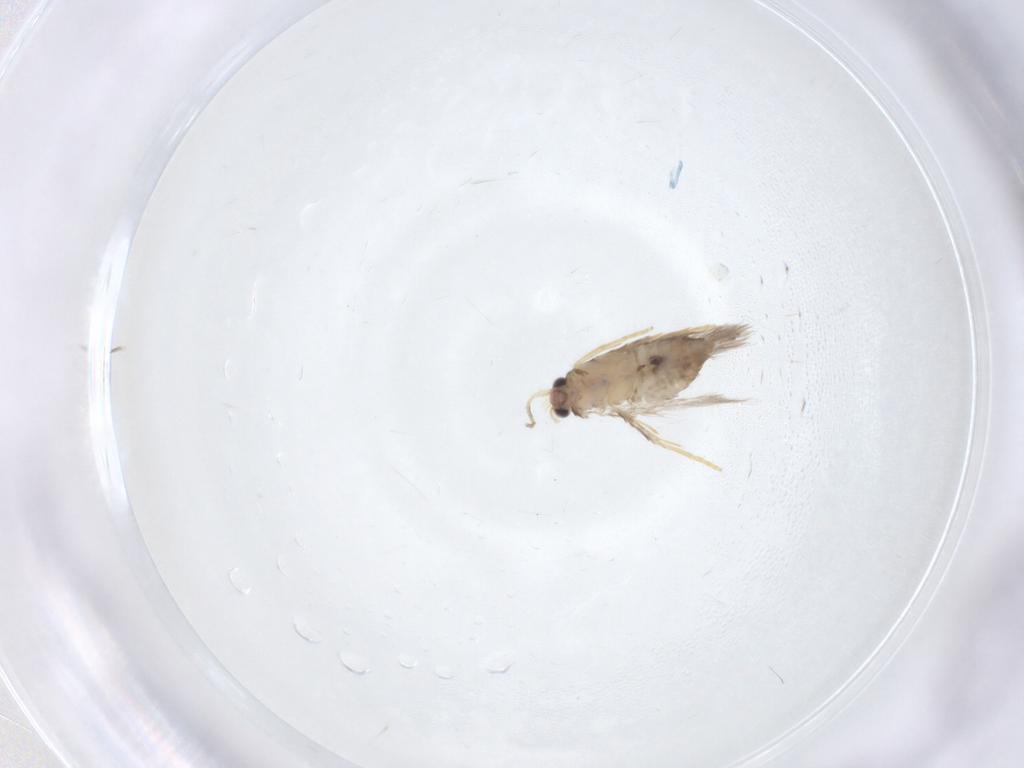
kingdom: Animalia
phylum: Arthropoda
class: Insecta
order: Lepidoptera
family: Nepticulidae
